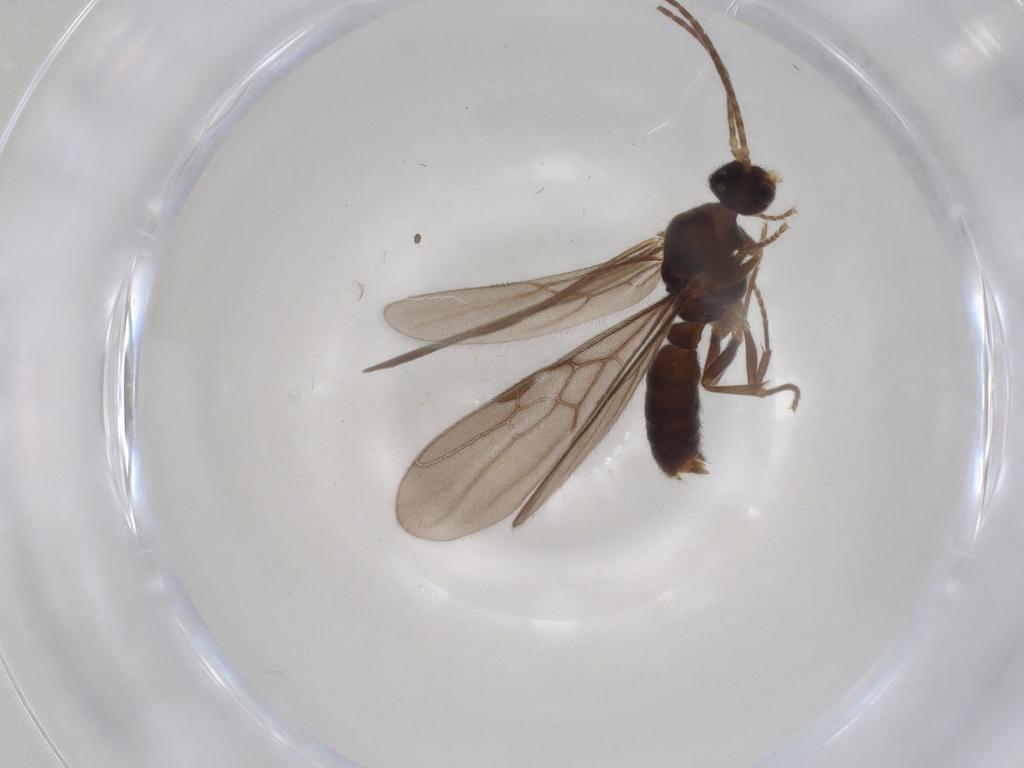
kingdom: Animalia
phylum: Arthropoda
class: Insecta
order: Hymenoptera
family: Formicidae
